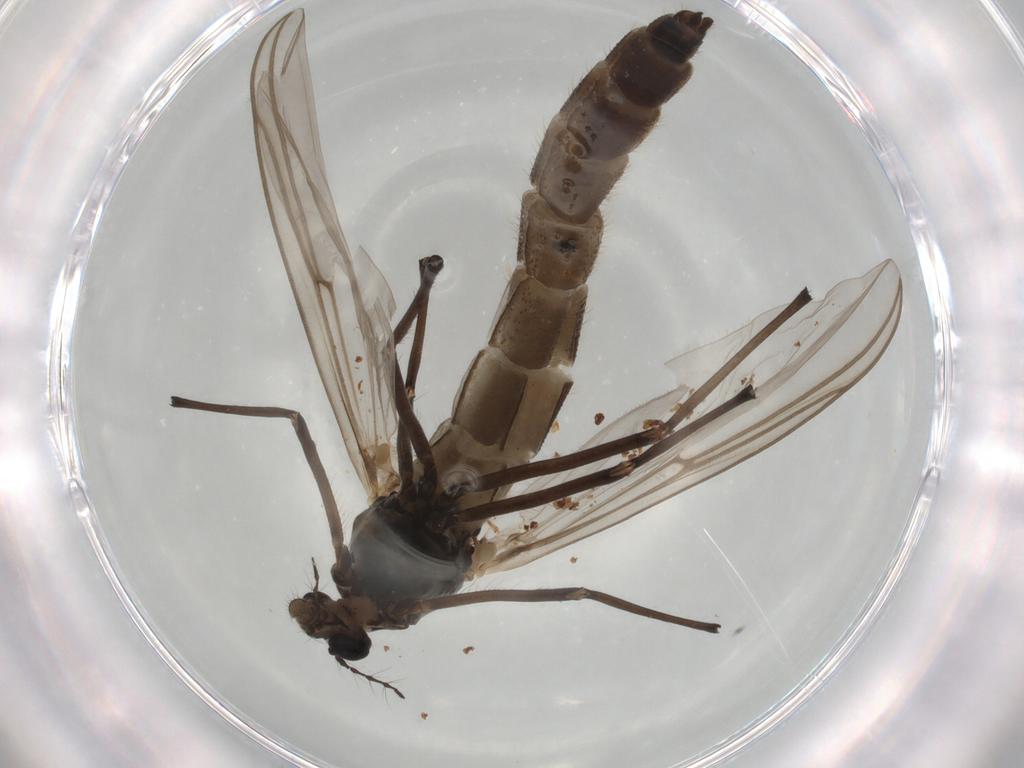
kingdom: Animalia
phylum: Arthropoda
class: Insecta
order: Diptera
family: Chironomidae
